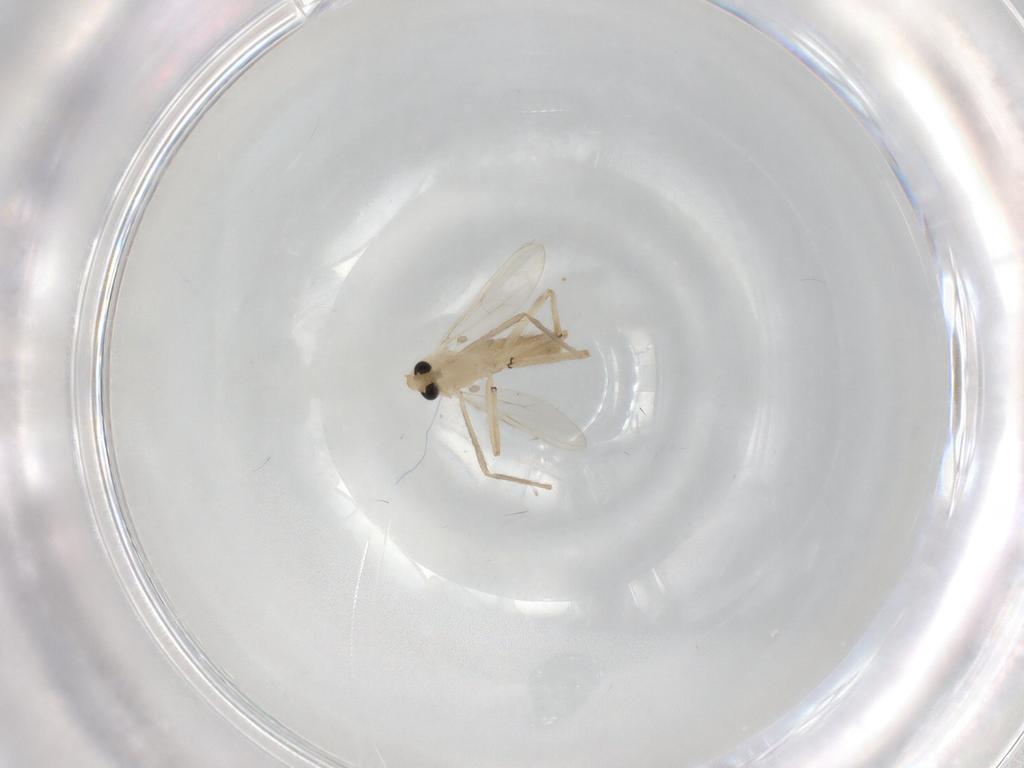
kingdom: Animalia
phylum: Arthropoda
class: Insecta
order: Diptera
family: Chironomidae
